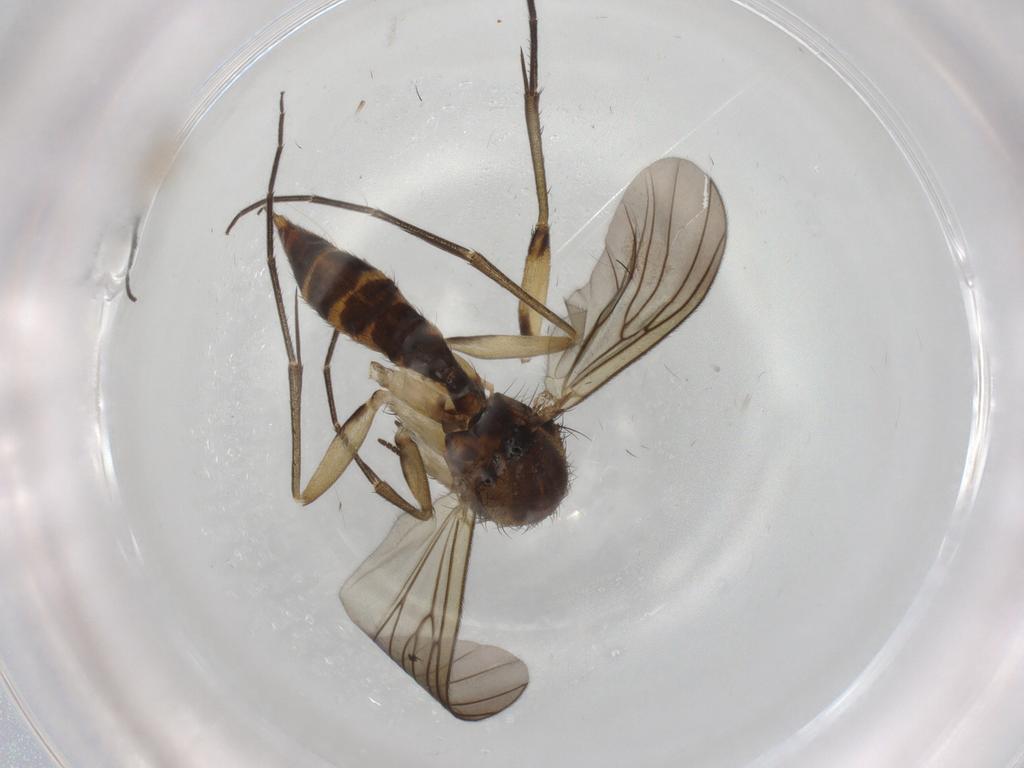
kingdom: Animalia
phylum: Arthropoda
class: Insecta
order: Diptera
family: Mycetophilidae
